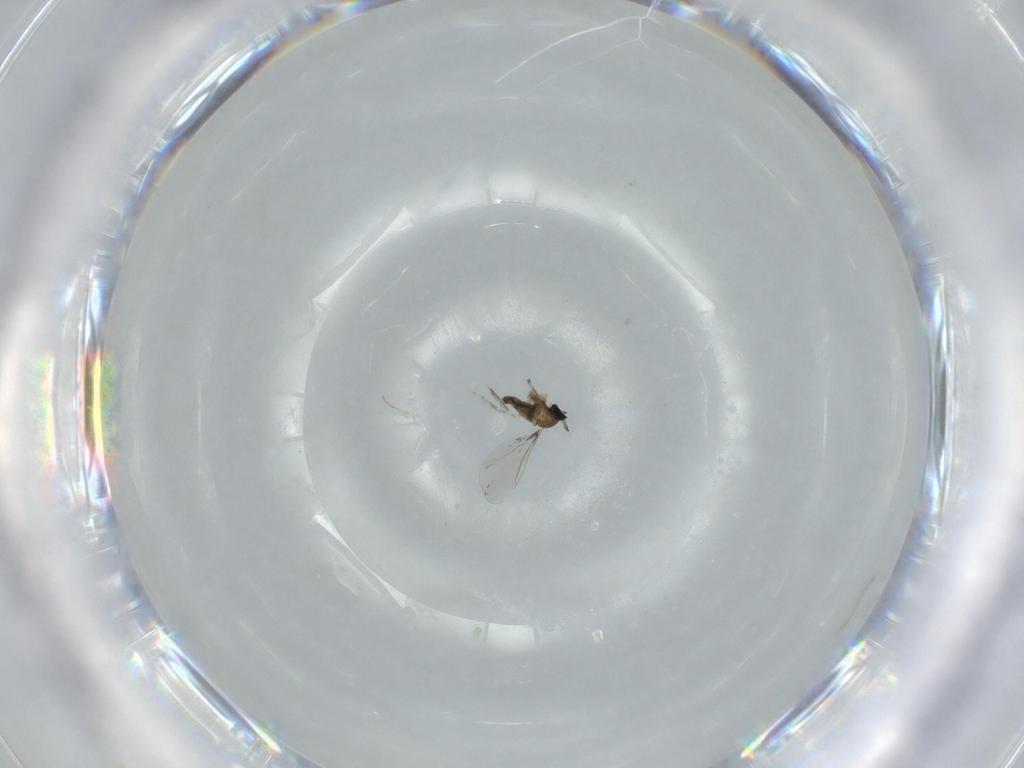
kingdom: Animalia
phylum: Arthropoda
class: Insecta
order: Diptera
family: Cecidomyiidae
